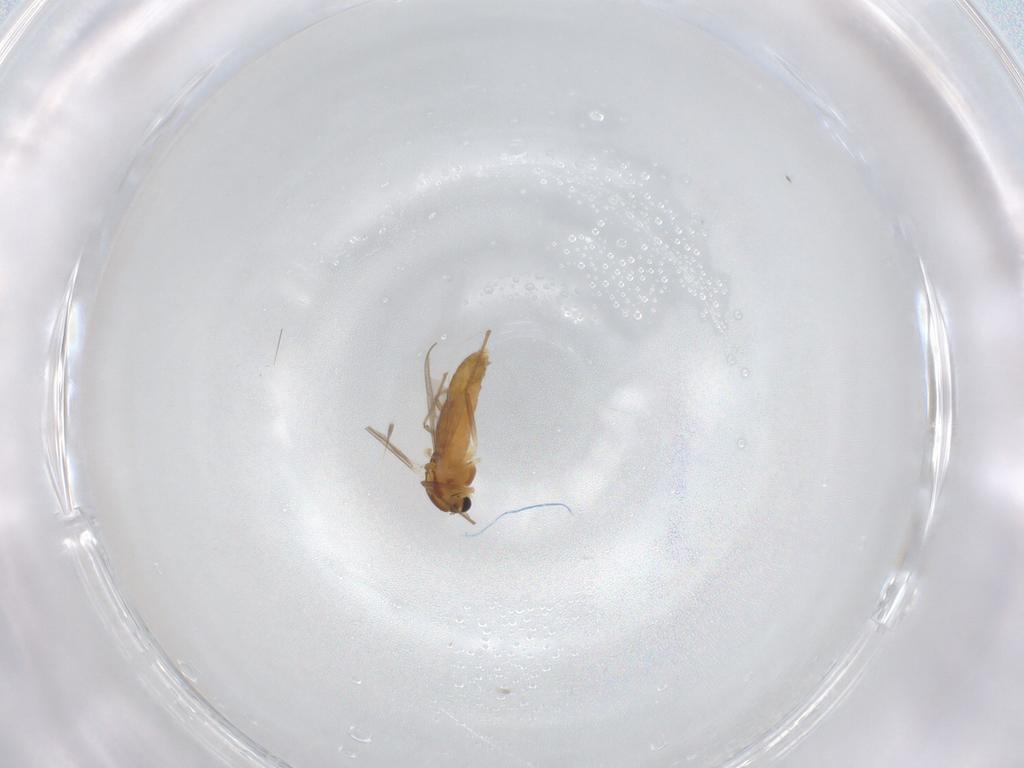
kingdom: Animalia
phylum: Arthropoda
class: Insecta
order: Diptera
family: Chironomidae
